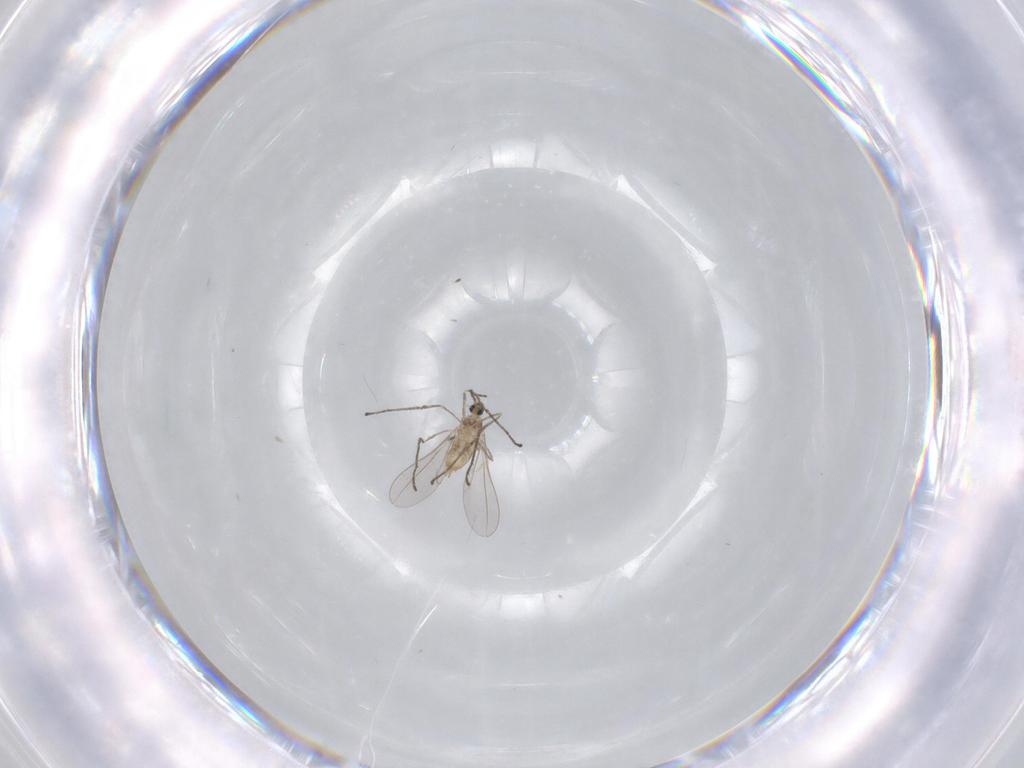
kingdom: Animalia
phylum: Arthropoda
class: Insecta
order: Diptera
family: Cecidomyiidae
